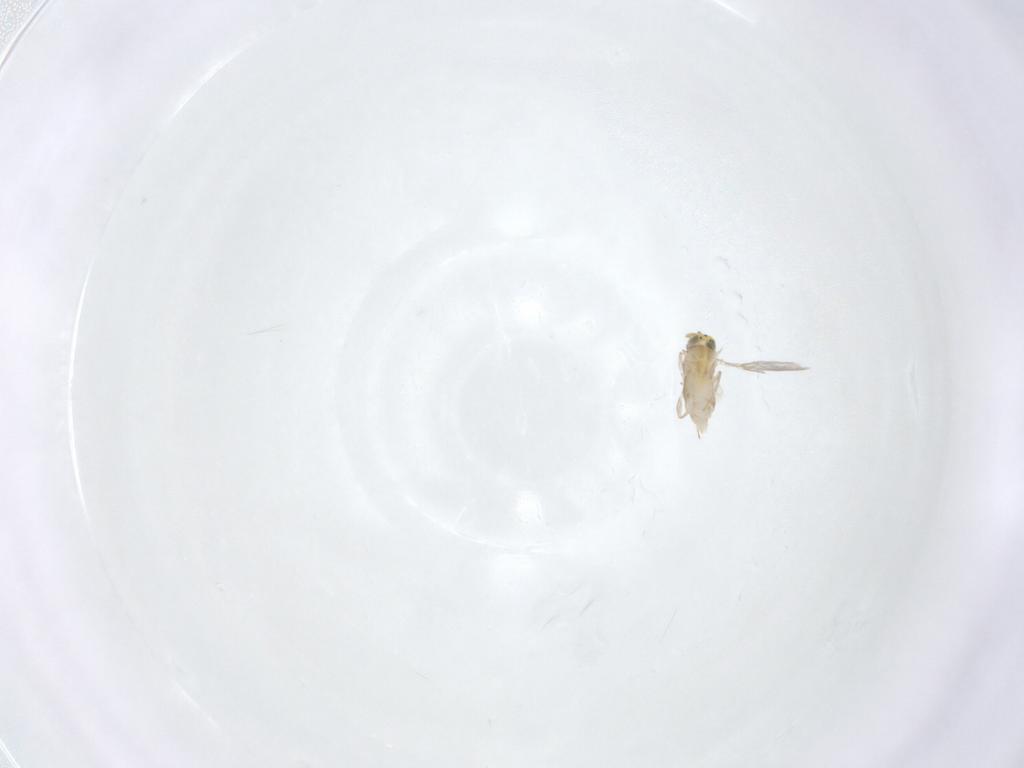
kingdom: Animalia
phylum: Arthropoda
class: Insecta
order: Hymenoptera
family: Aphelinidae
